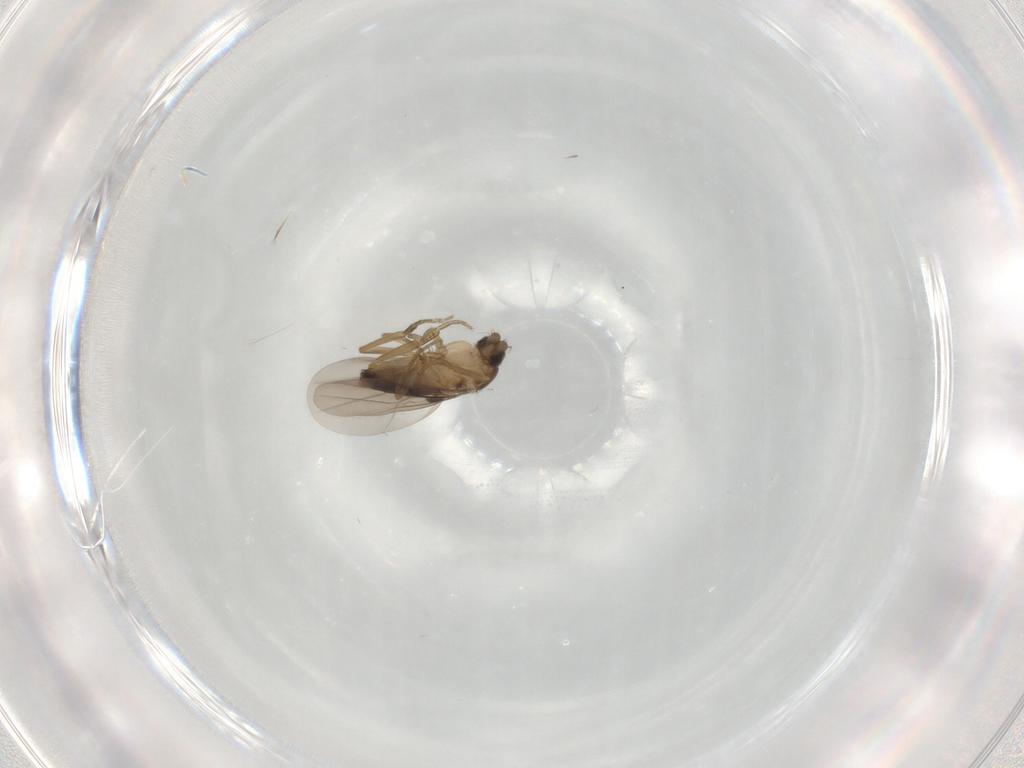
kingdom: Animalia
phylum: Arthropoda
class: Insecta
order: Diptera
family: Phoridae
